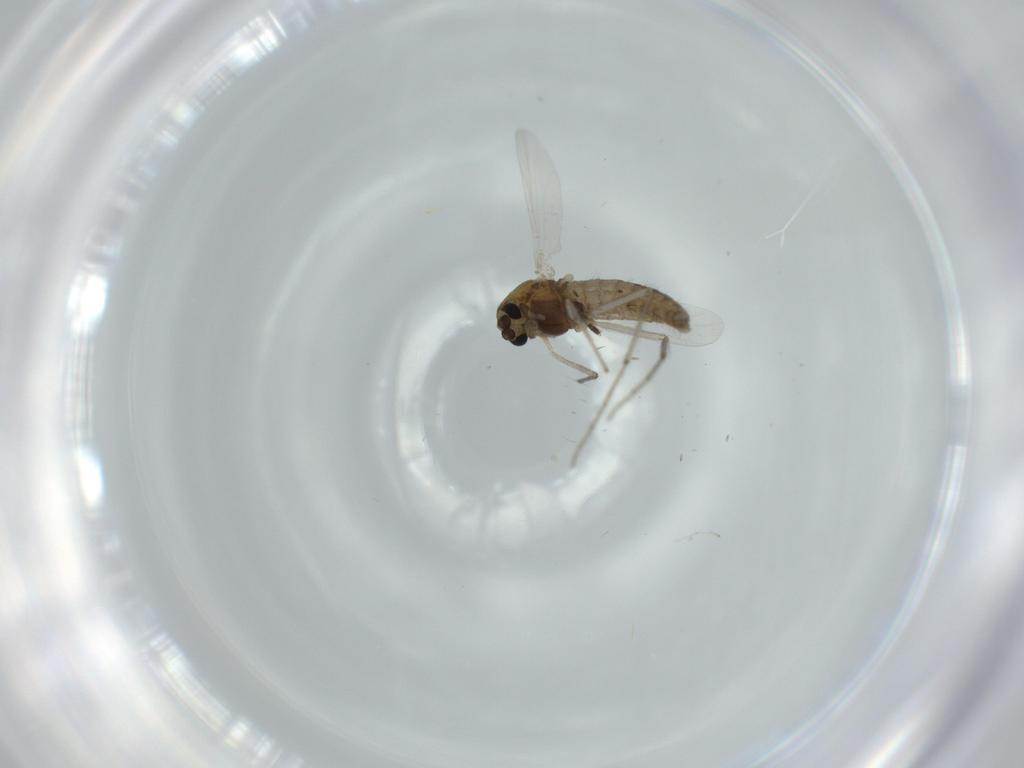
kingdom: Animalia
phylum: Arthropoda
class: Insecta
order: Diptera
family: Chironomidae
